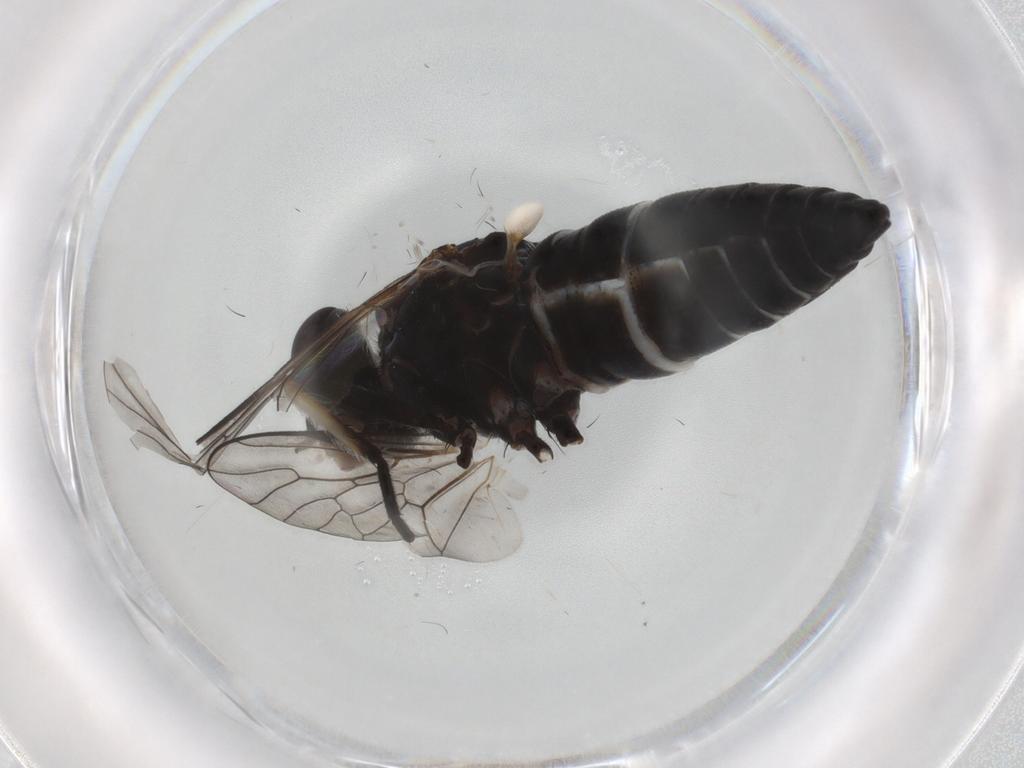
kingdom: Animalia
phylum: Arthropoda
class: Insecta
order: Diptera
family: Therevidae
